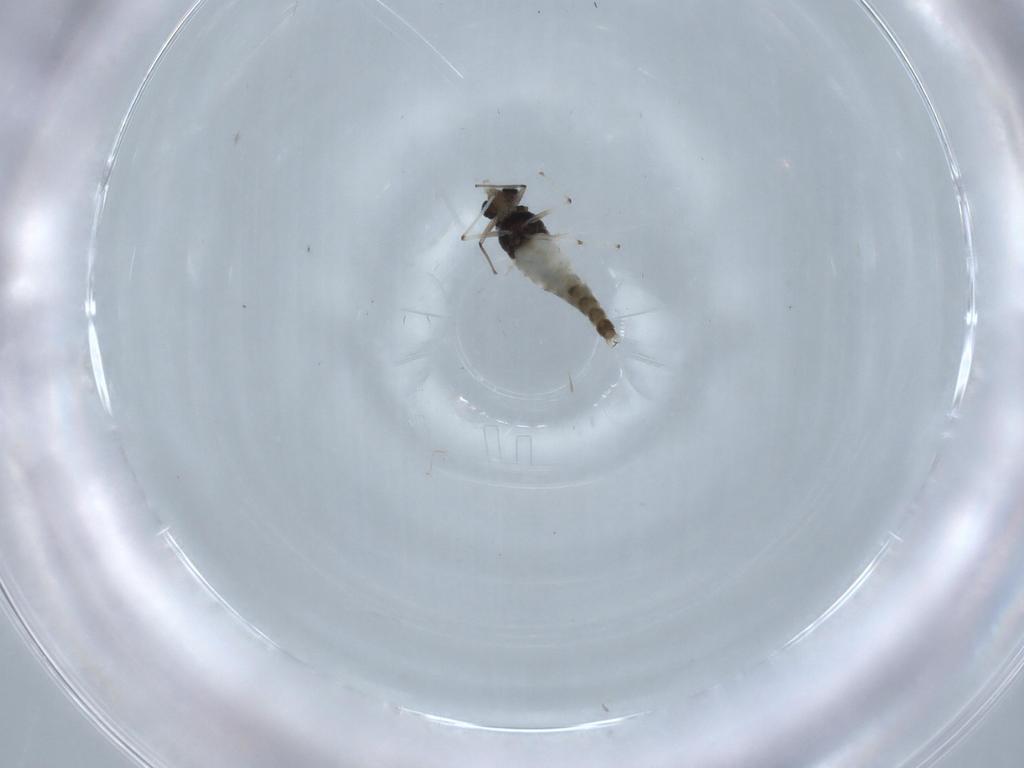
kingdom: Animalia
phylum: Arthropoda
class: Insecta
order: Diptera
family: Chironomidae
